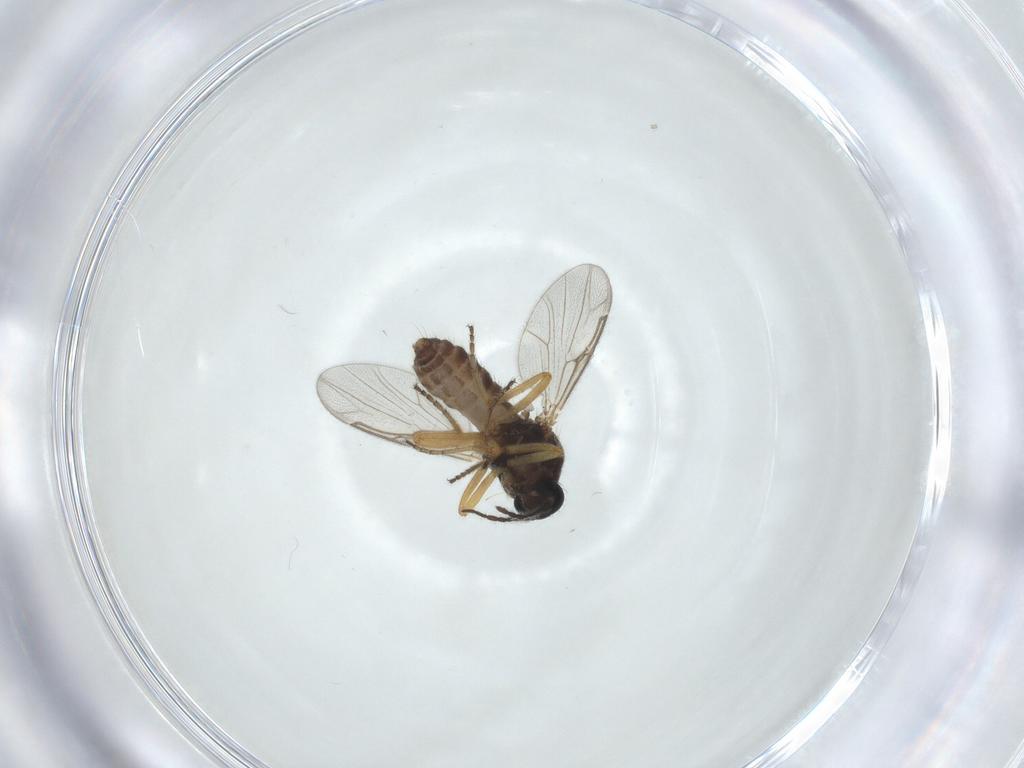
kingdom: Animalia
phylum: Arthropoda
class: Insecta
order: Diptera
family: Ceratopogonidae
